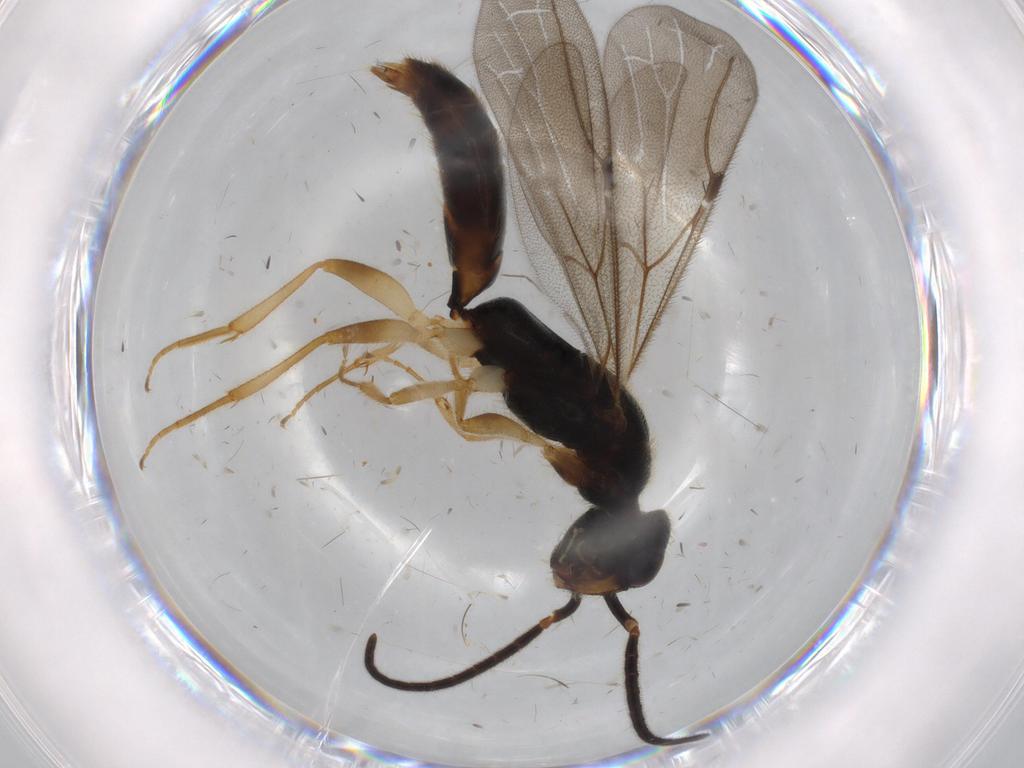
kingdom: Animalia
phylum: Arthropoda
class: Insecta
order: Hymenoptera
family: Bethylidae
